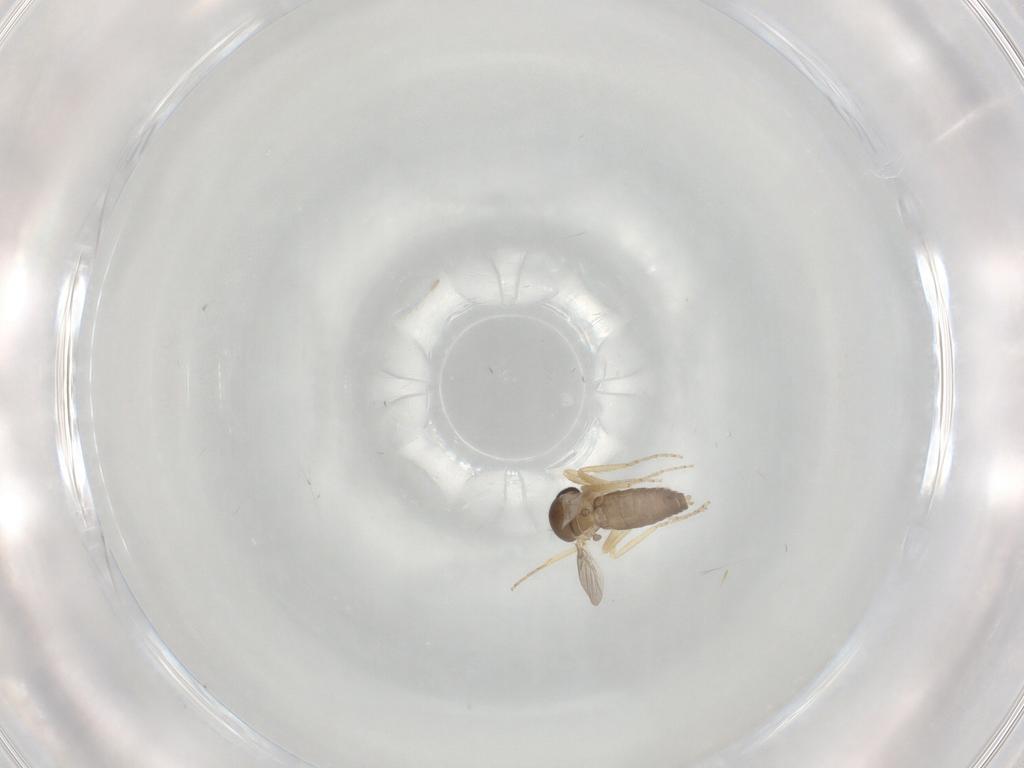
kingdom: Animalia
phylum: Arthropoda
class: Insecta
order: Diptera
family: Ceratopogonidae
